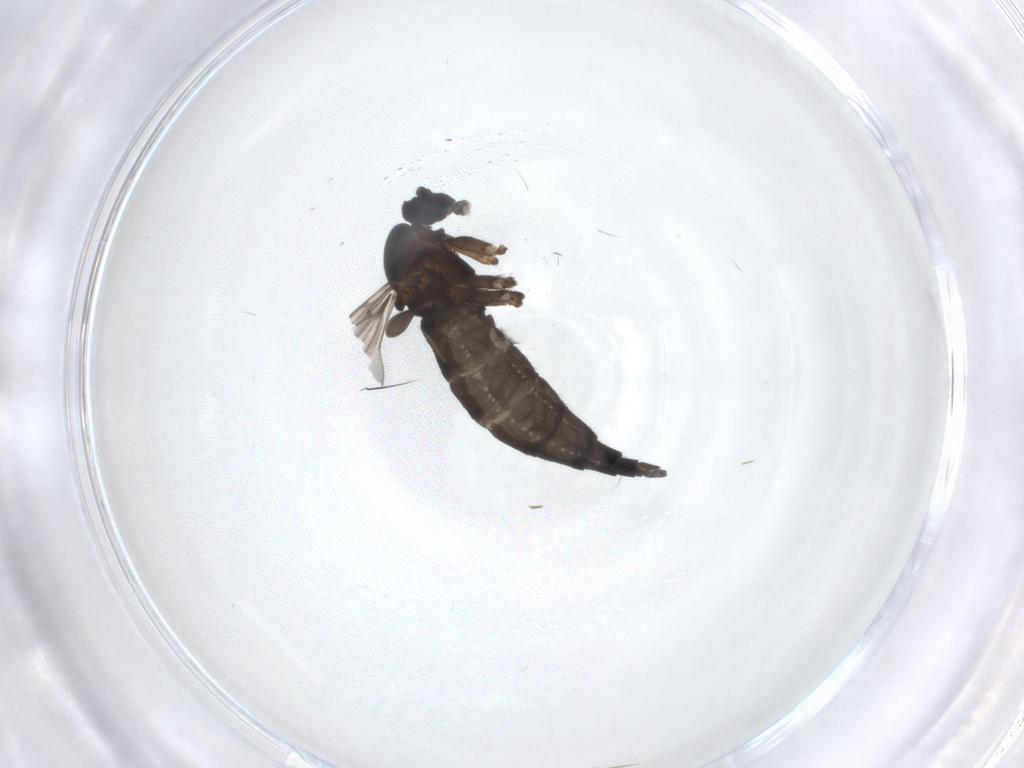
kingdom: Animalia
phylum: Arthropoda
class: Insecta
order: Diptera
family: Sciaridae
